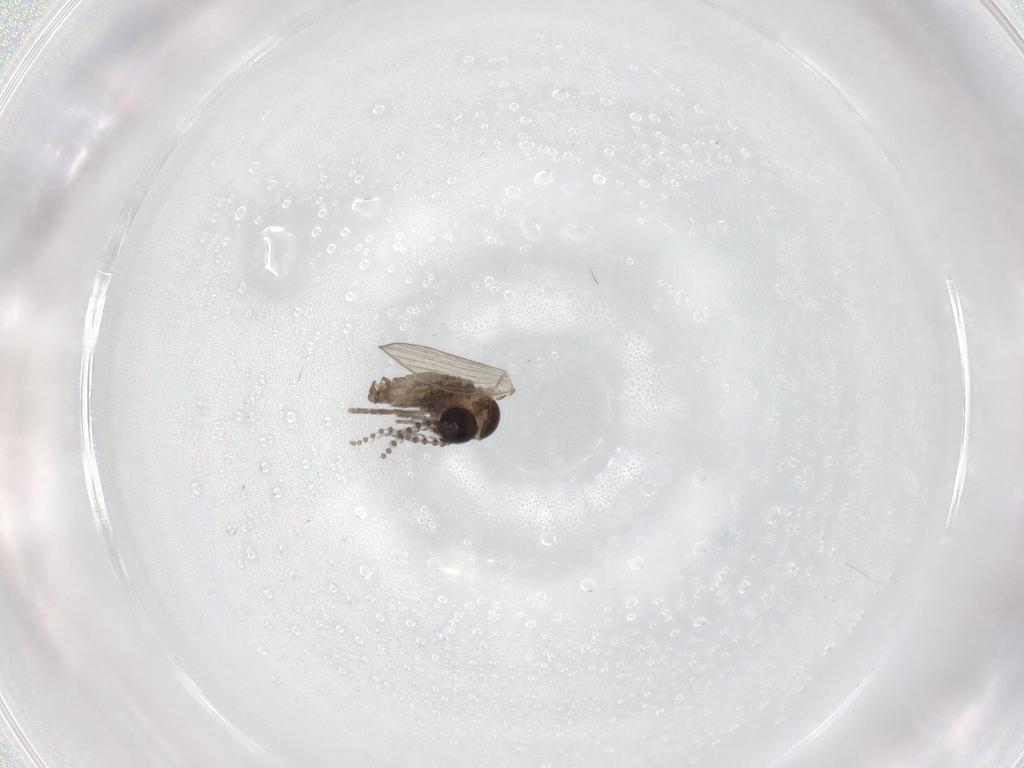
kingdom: Animalia
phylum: Arthropoda
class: Insecta
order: Diptera
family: Psychodidae
